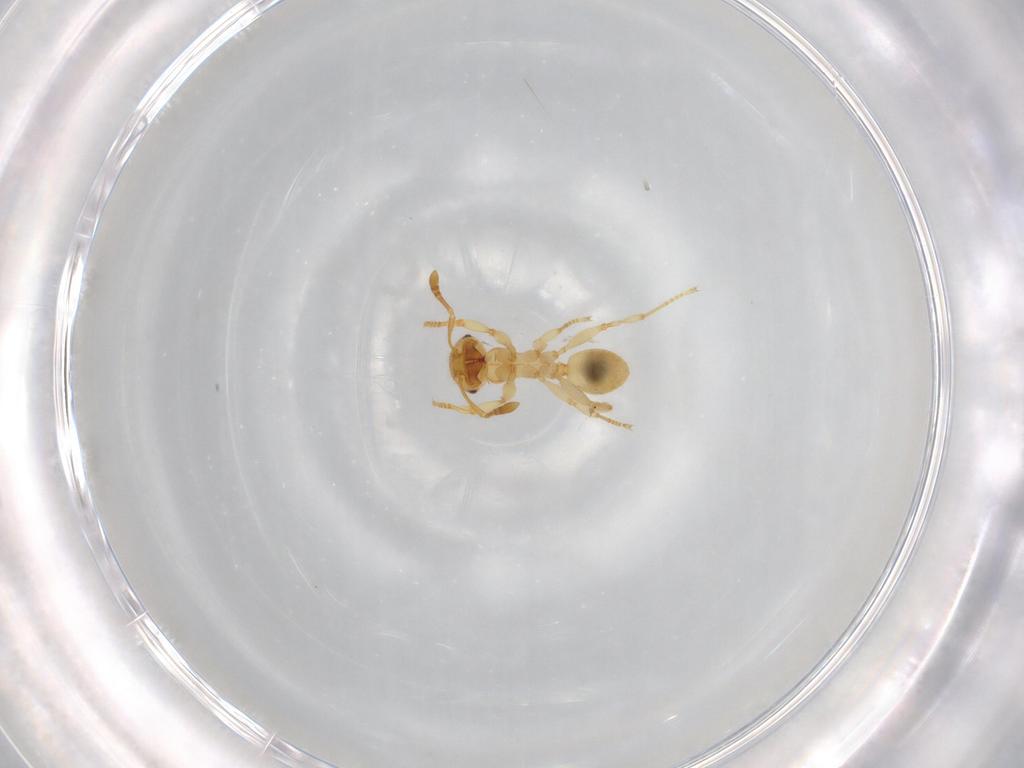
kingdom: Animalia
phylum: Arthropoda
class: Insecta
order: Hymenoptera
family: Formicidae
